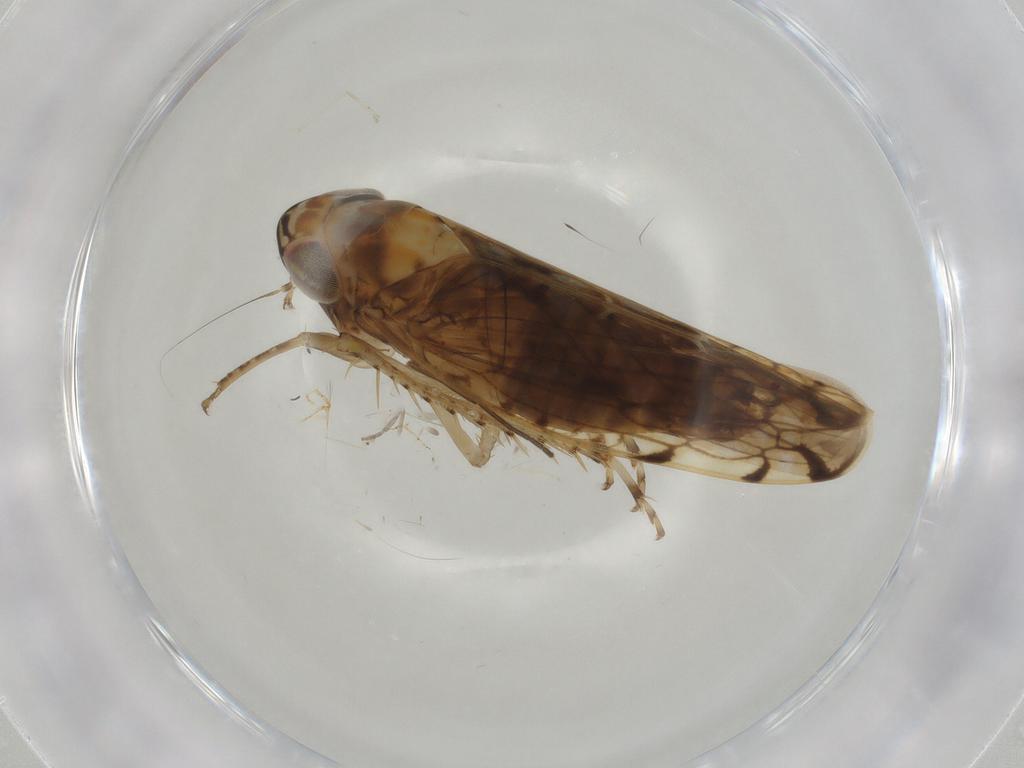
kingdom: Animalia
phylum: Arthropoda
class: Insecta
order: Hemiptera
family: Cicadellidae
